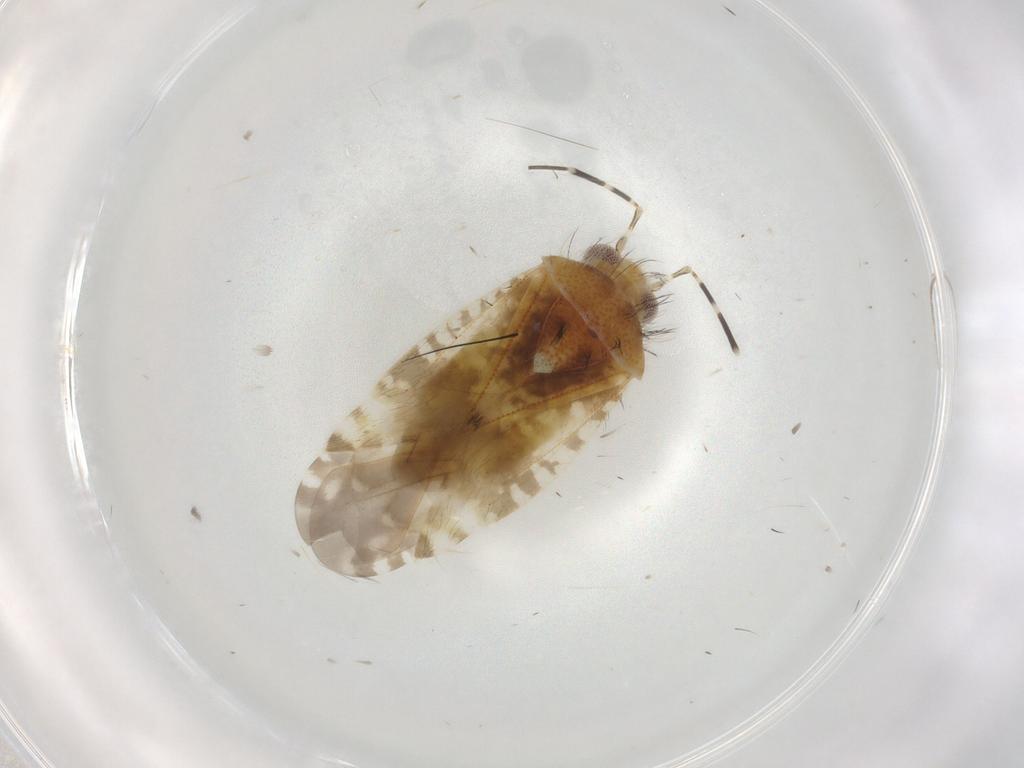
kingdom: Animalia
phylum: Arthropoda
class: Insecta
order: Hemiptera
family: Miridae
